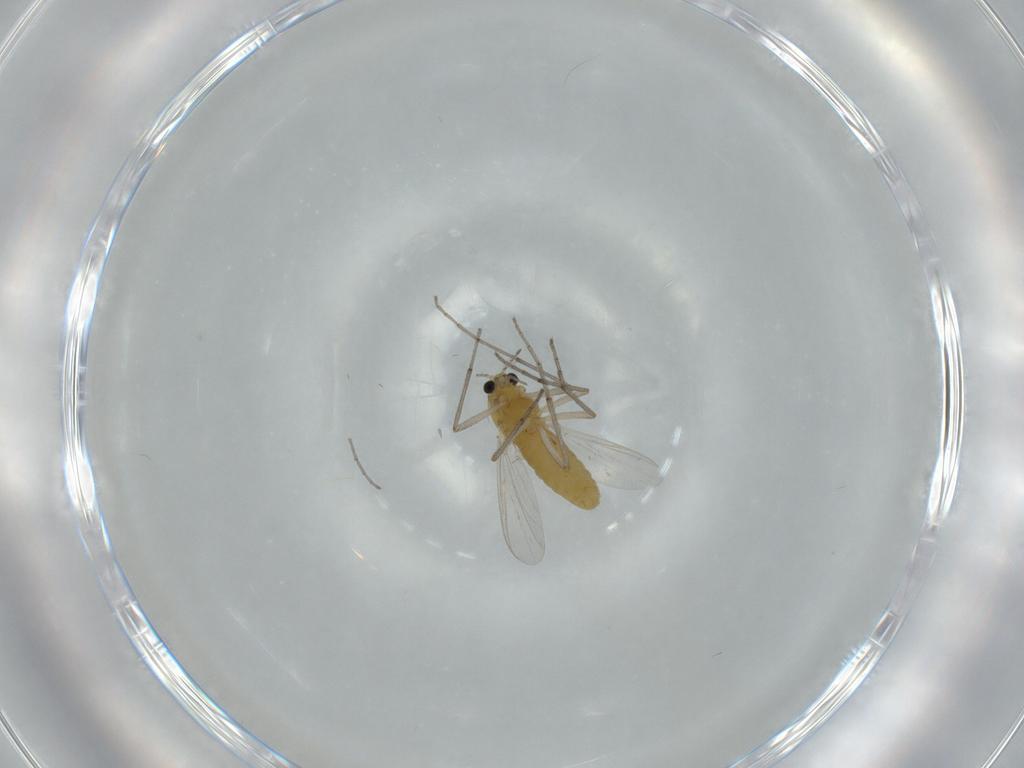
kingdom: Animalia
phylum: Arthropoda
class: Insecta
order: Diptera
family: Chironomidae
